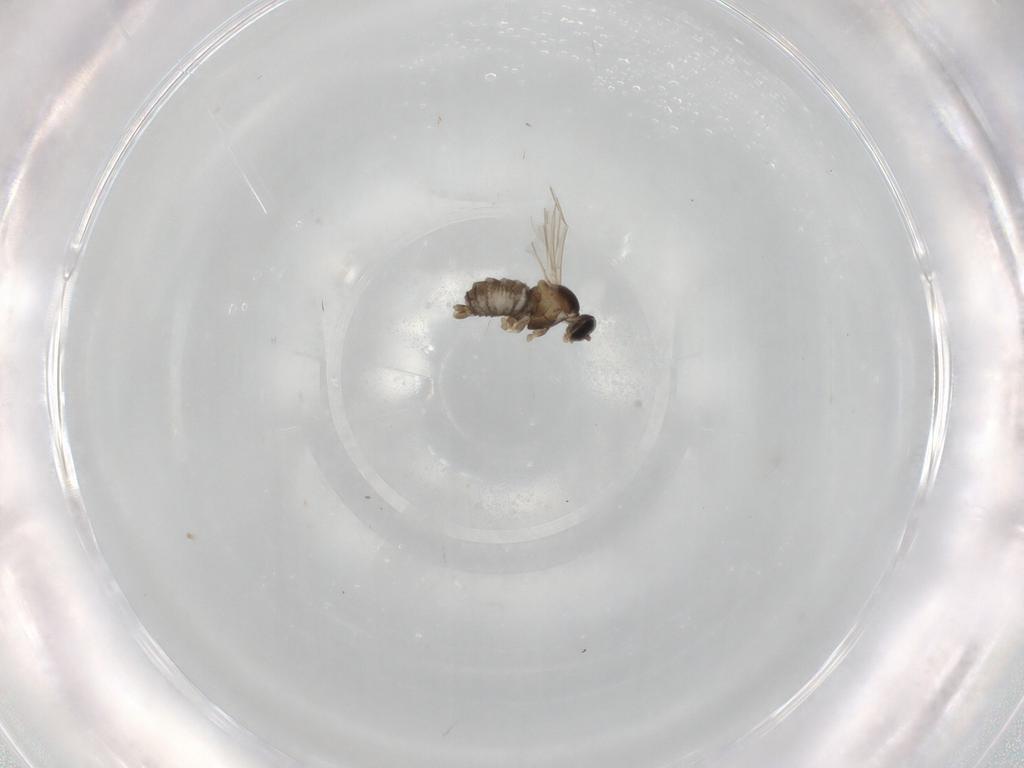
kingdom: Animalia
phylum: Arthropoda
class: Insecta
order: Diptera
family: Cecidomyiidae
